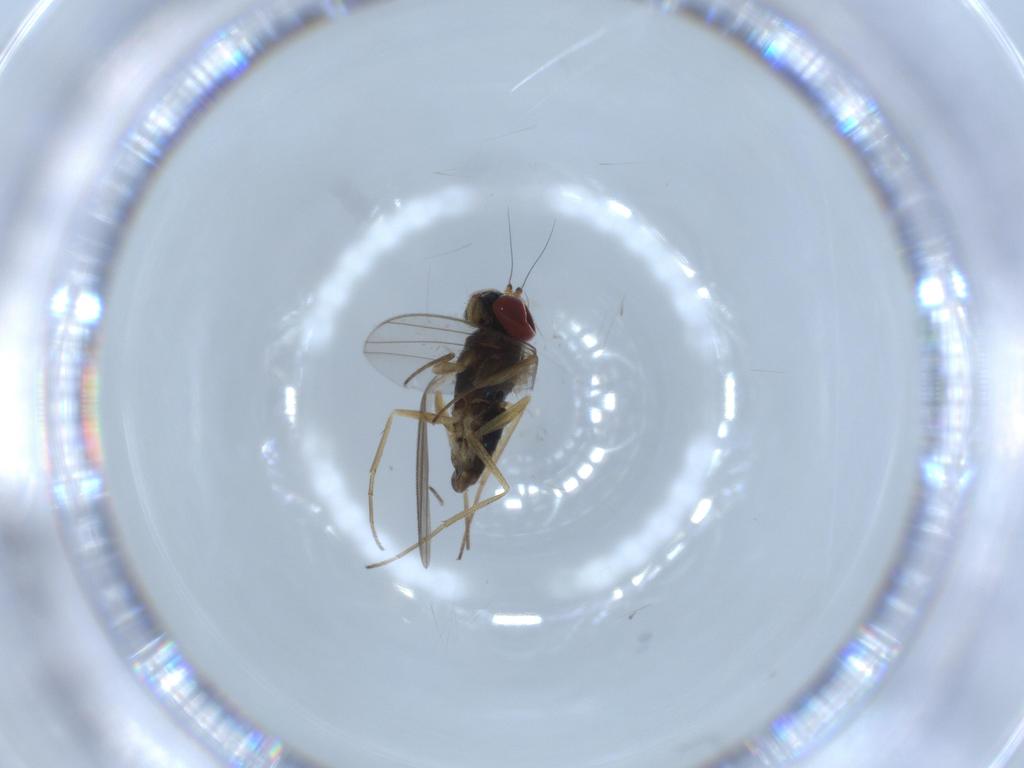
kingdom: Animalia
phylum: Arthropoda
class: Insecta
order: Diptera
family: Dolichopodidae
